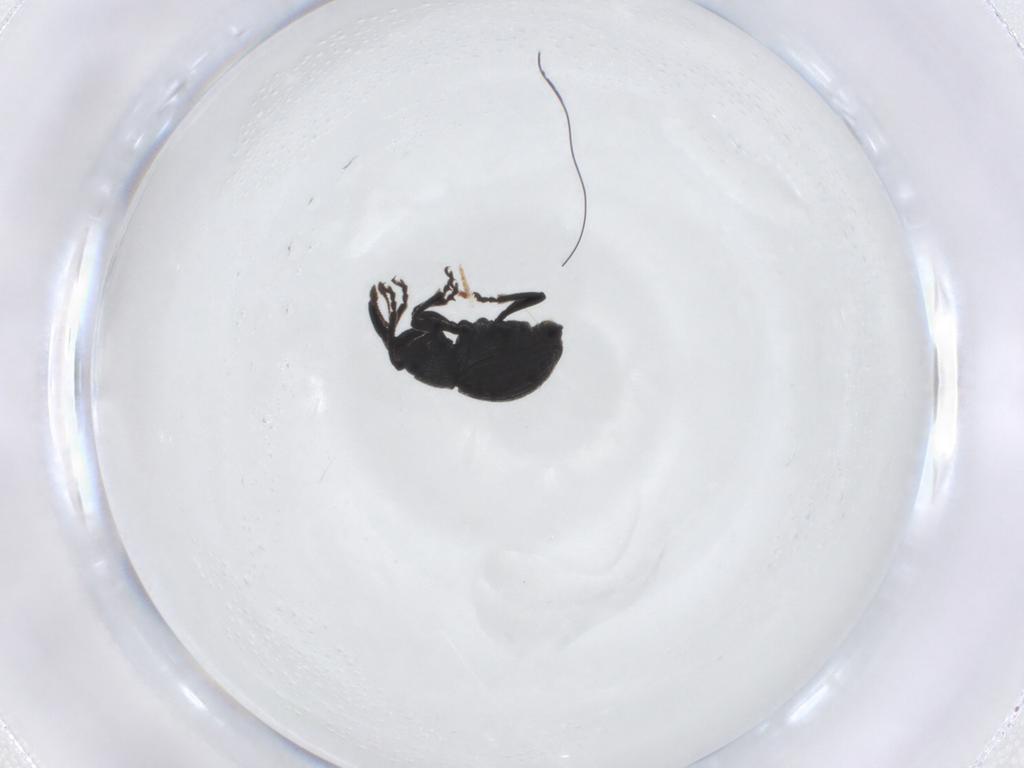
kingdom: Animalia
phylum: Arthropoda
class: Insecta
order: Coleoptera
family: Brentidae
